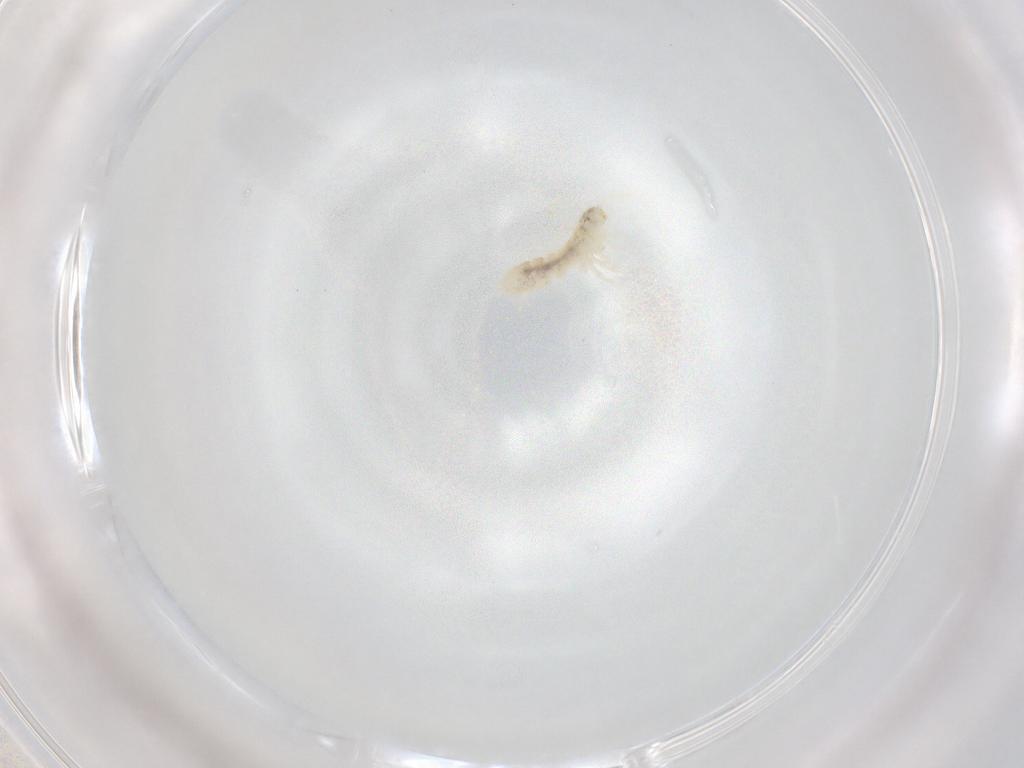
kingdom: Animalia
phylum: Arthropoda
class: Collembola
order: Entomobryomorpha
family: Isotomidae
